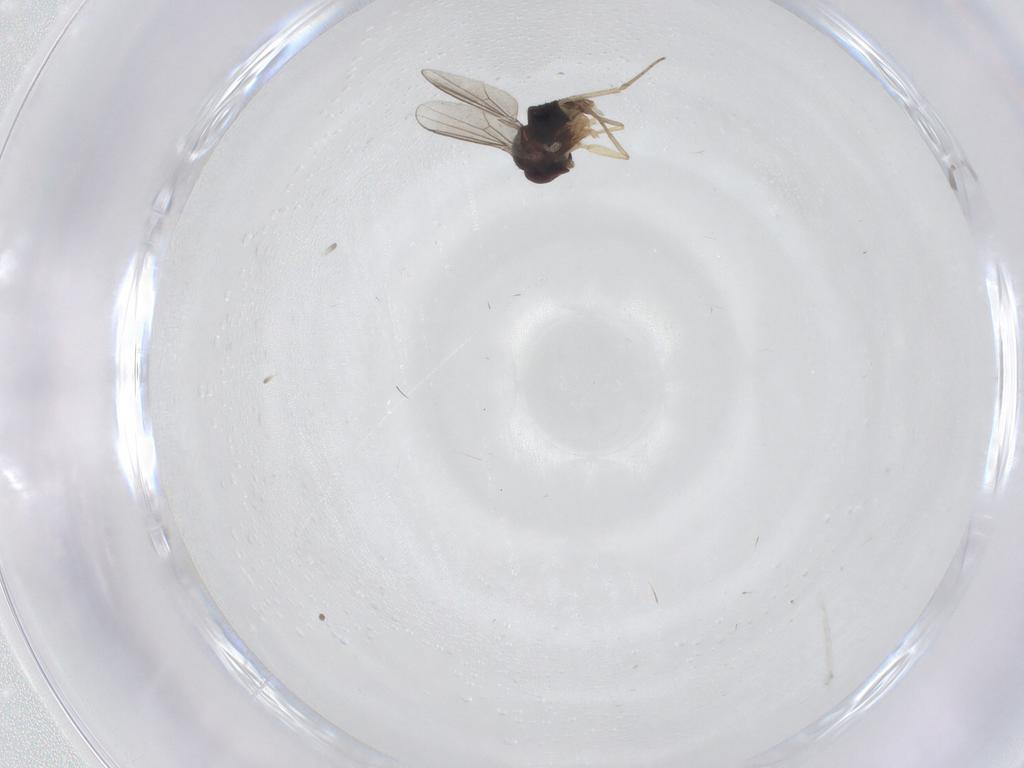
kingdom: Animalia
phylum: Arthropoda
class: Insecta
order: Diptera
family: Dolichopodidae
